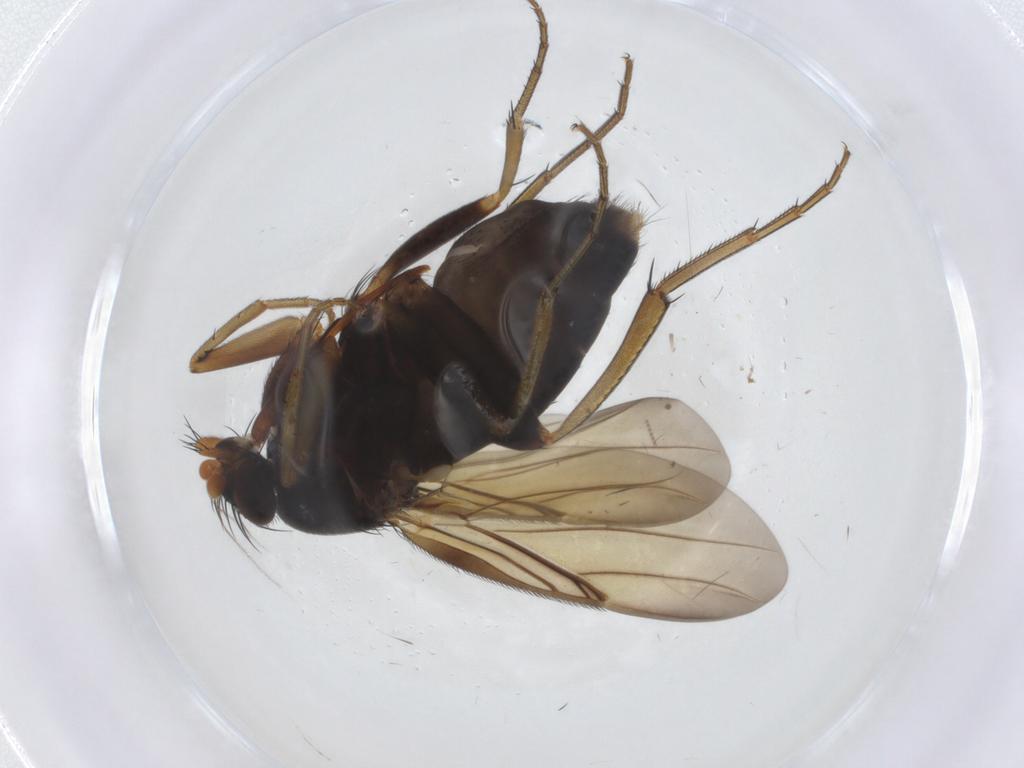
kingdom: Animalia
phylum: Arthropoda
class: Insecta
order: Diptera
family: Phoridae
